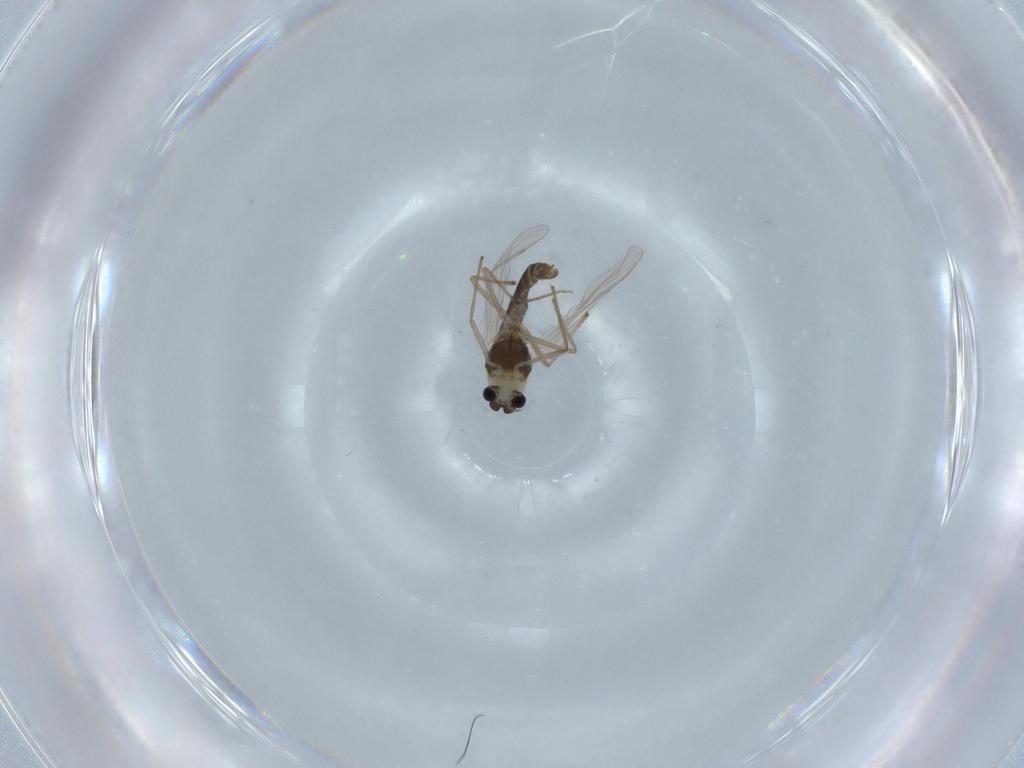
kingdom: Animalia
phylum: Arthropoda
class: Insecta
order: Diptera
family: Chironomidae
